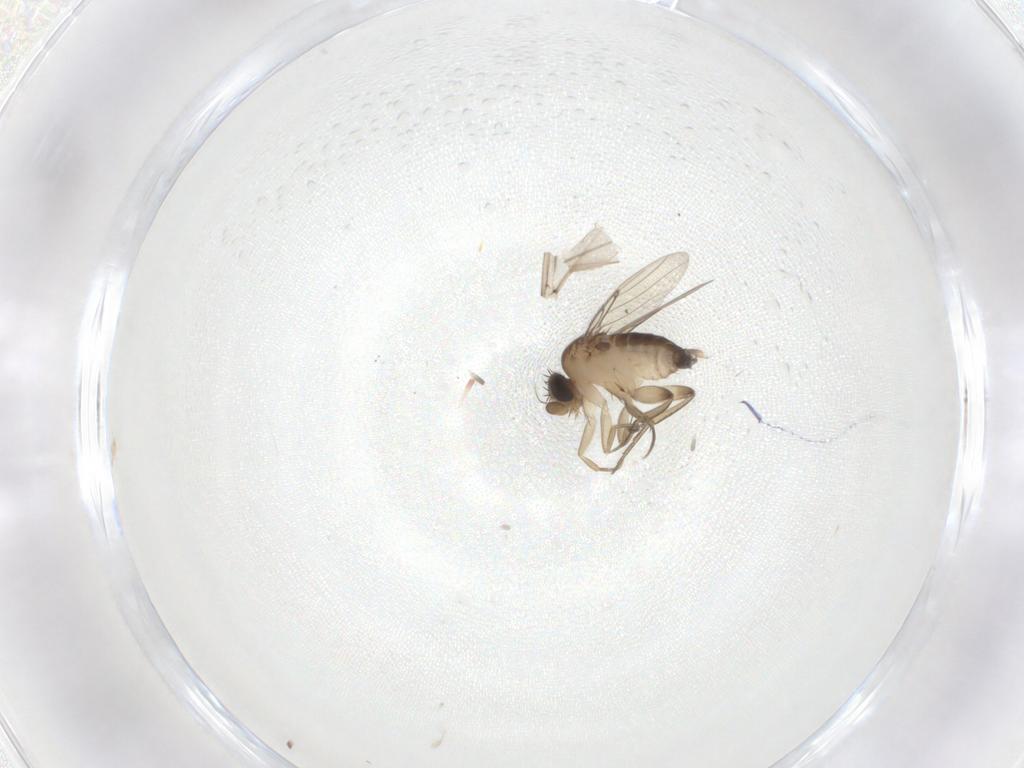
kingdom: Animalia
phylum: Arthropoda
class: Insecta
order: Diptera
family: Phoridae
